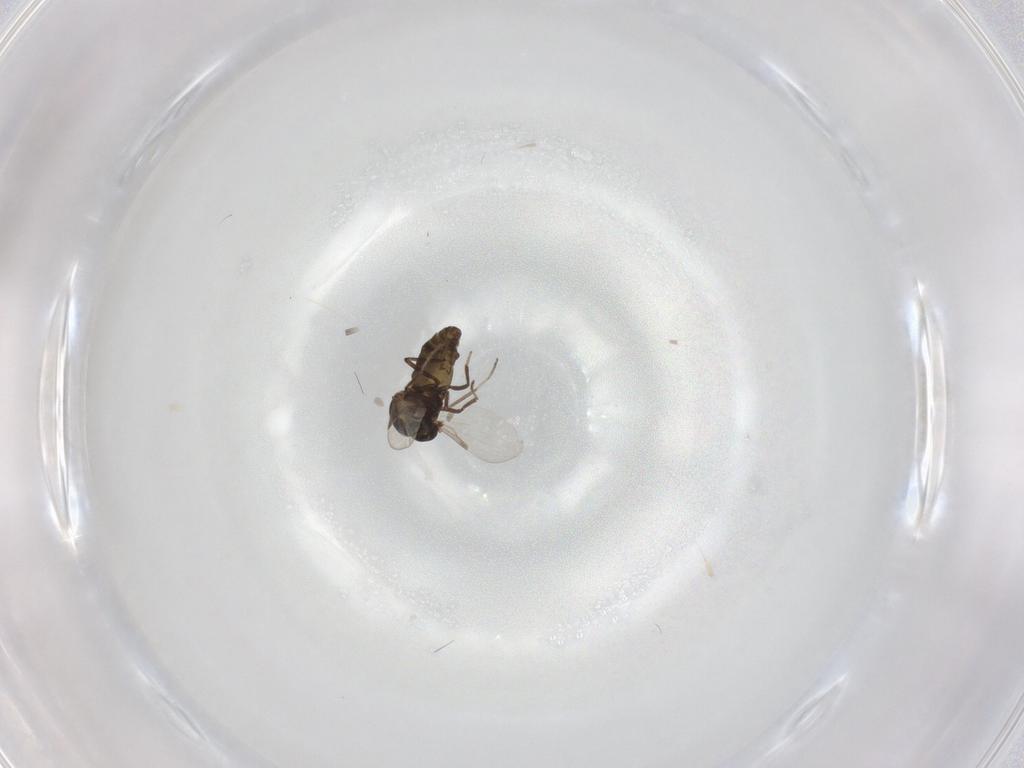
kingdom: Animalia
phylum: Arthropoda
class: Insecta
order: Diptera
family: Ceratopogonidae
